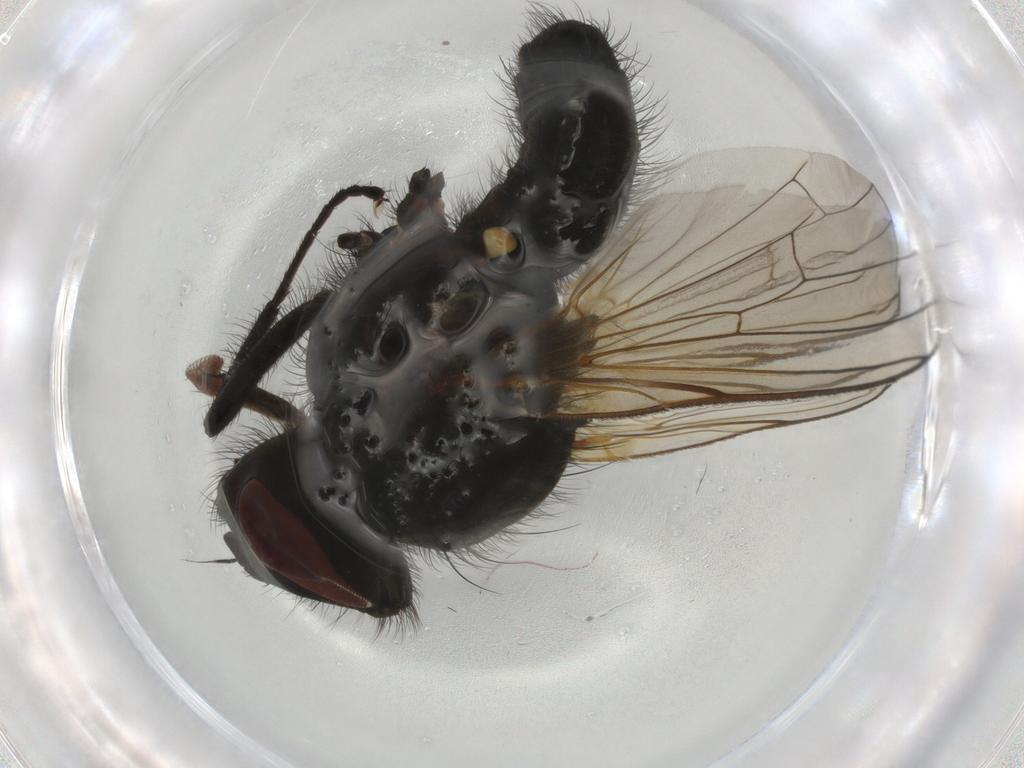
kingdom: Animalia
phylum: Arthropoda
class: Insecta
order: Diptera
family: Anthomyiidae
